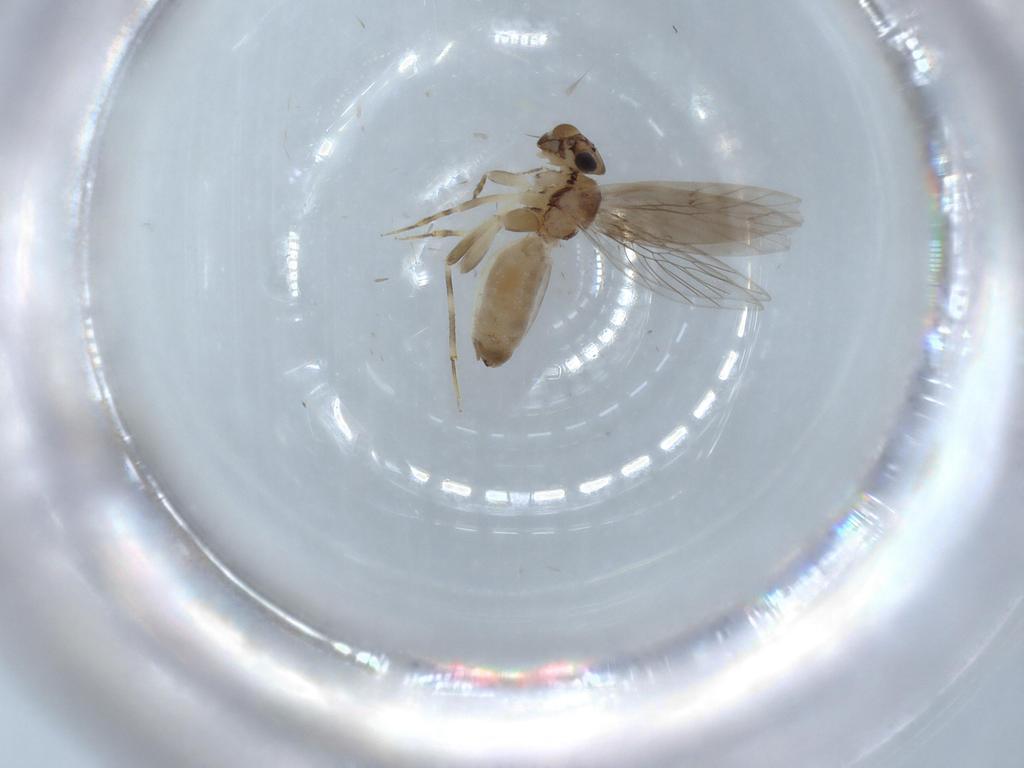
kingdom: Animalia
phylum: Arthropoda
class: Insecta
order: Psocodea
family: Lepidopsocidae
